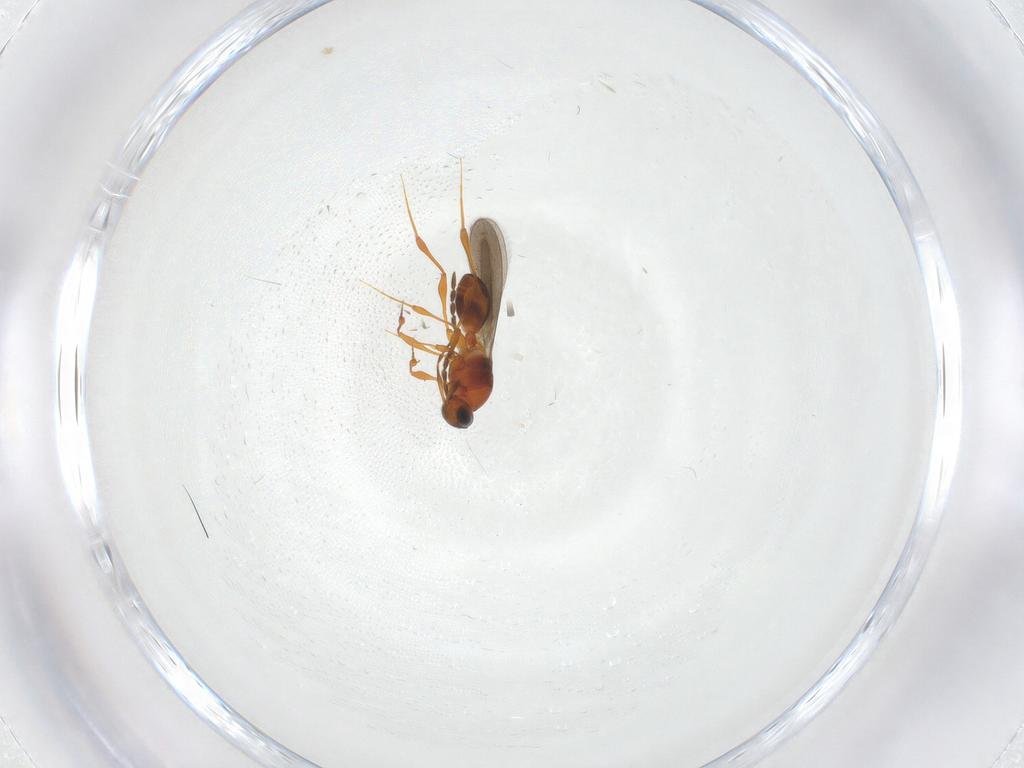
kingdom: Animalia
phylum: Arthropoda
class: Insecta
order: Hymenoptera
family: Platygastridae
